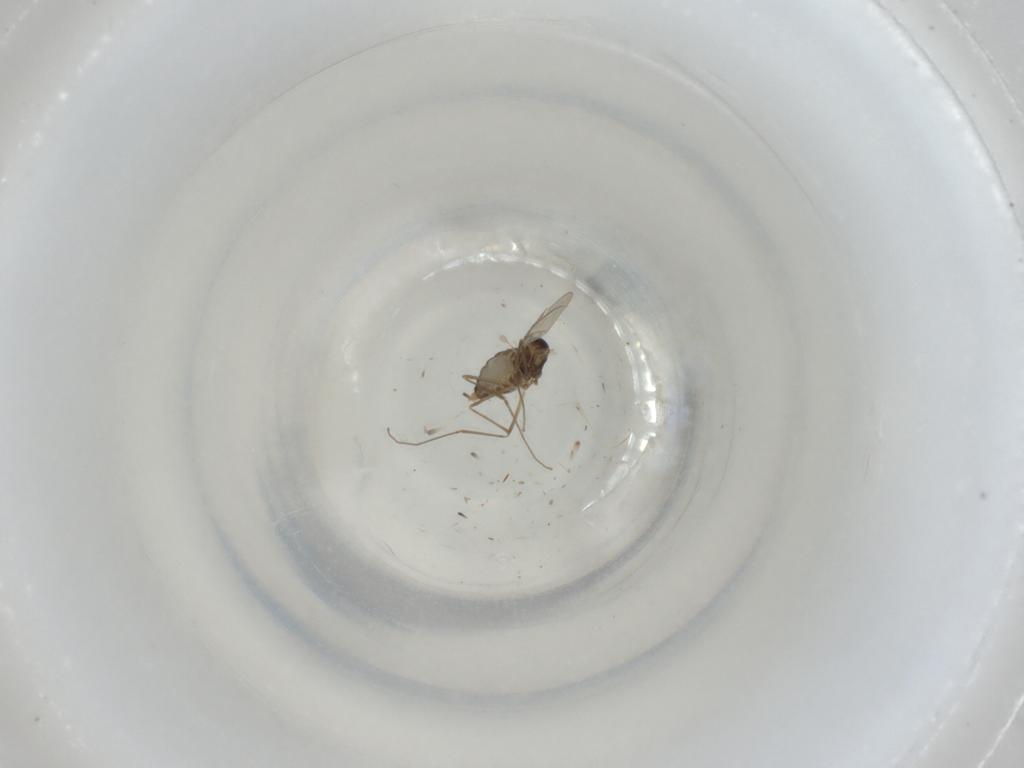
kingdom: Animalia
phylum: Arthropoda
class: Insecta
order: Diptera
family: Cecidomyiidae
